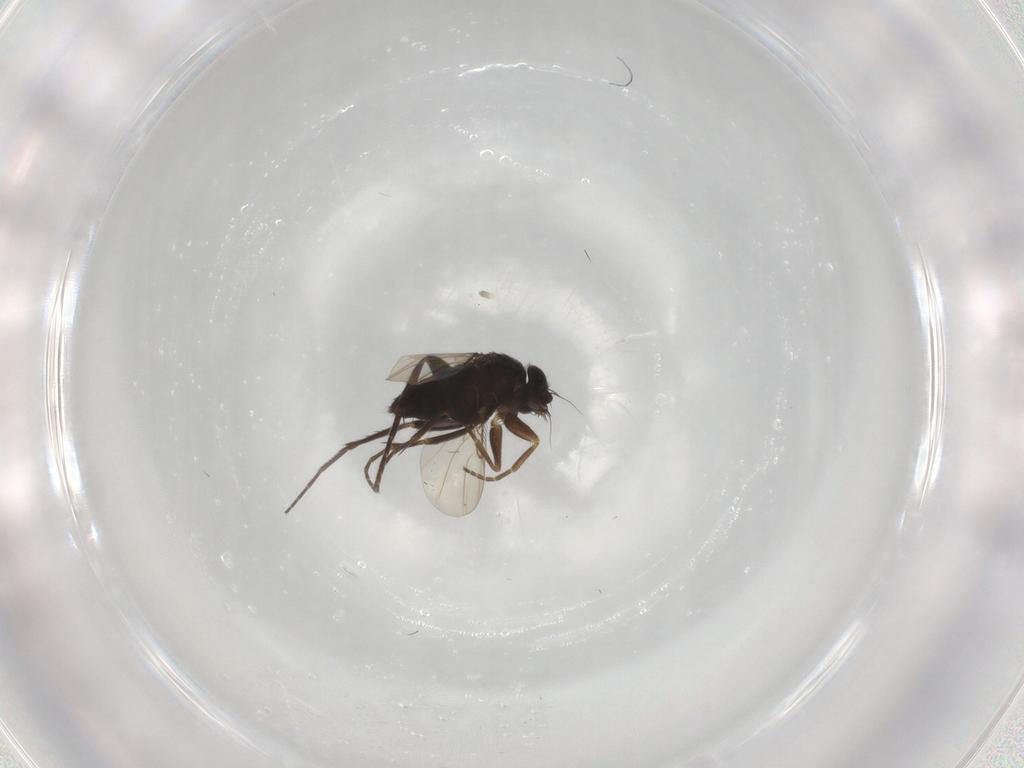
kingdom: Animalia
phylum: Arthropoda
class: Insecta
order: Diptera
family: Phoridae
